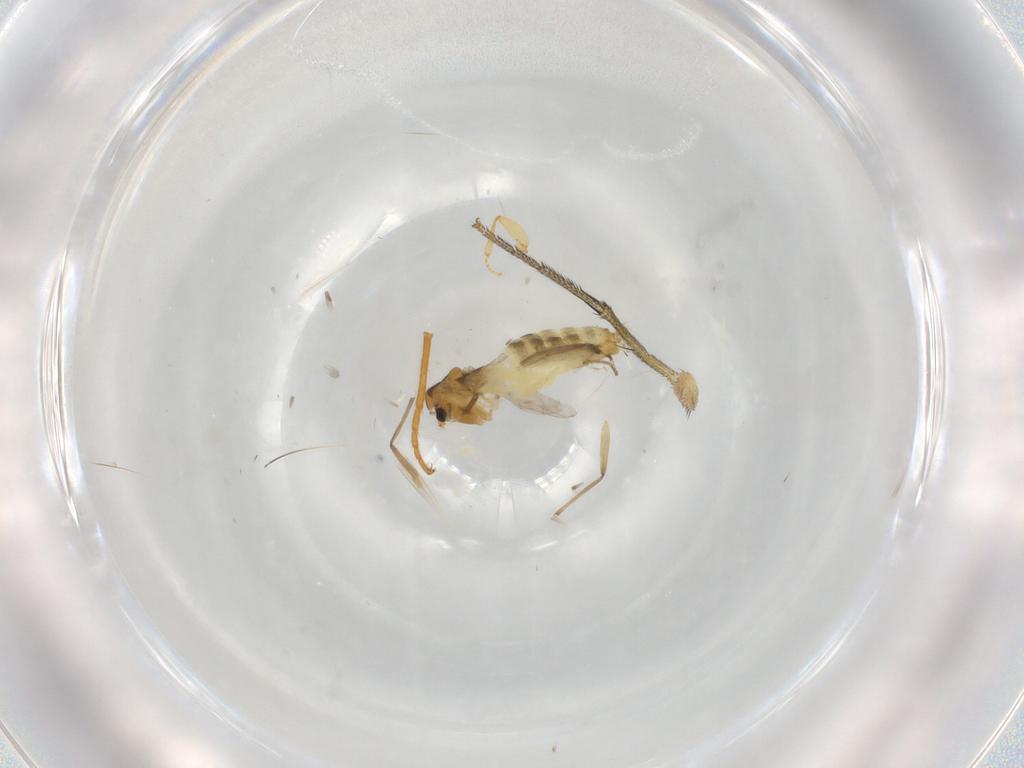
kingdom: Animalia
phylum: Arthropoda
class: Insecta
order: Diptera
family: Chironomidae
